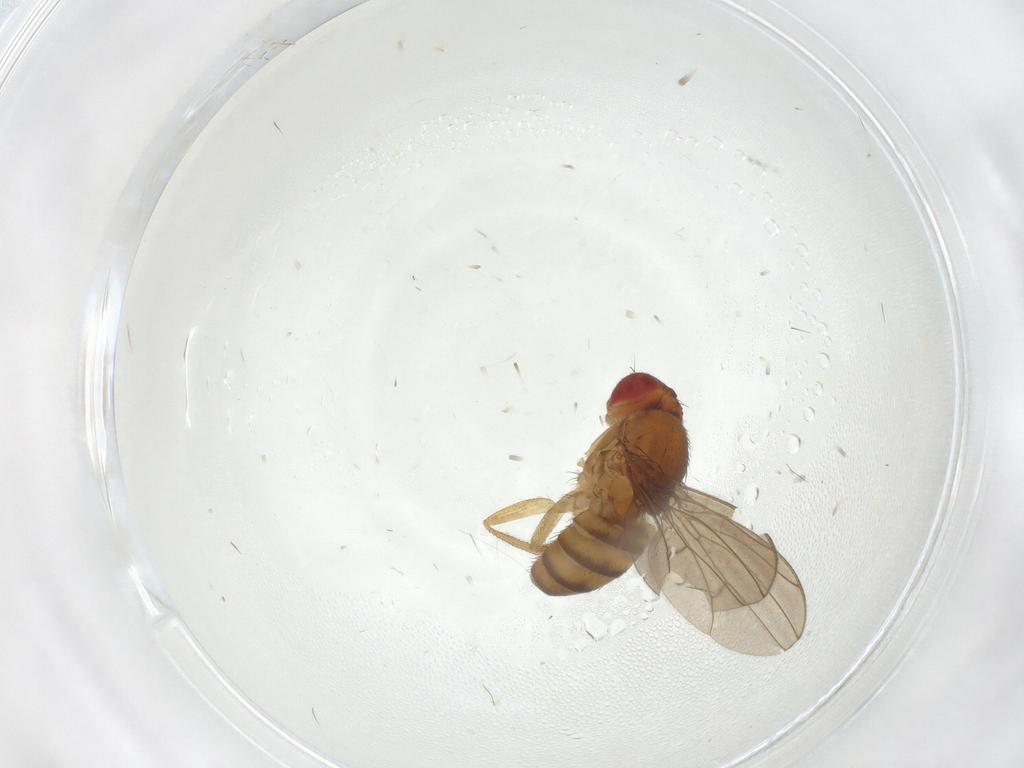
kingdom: Animalia
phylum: Arthropoda
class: Insecta
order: Diptera
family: Drosophilidae
